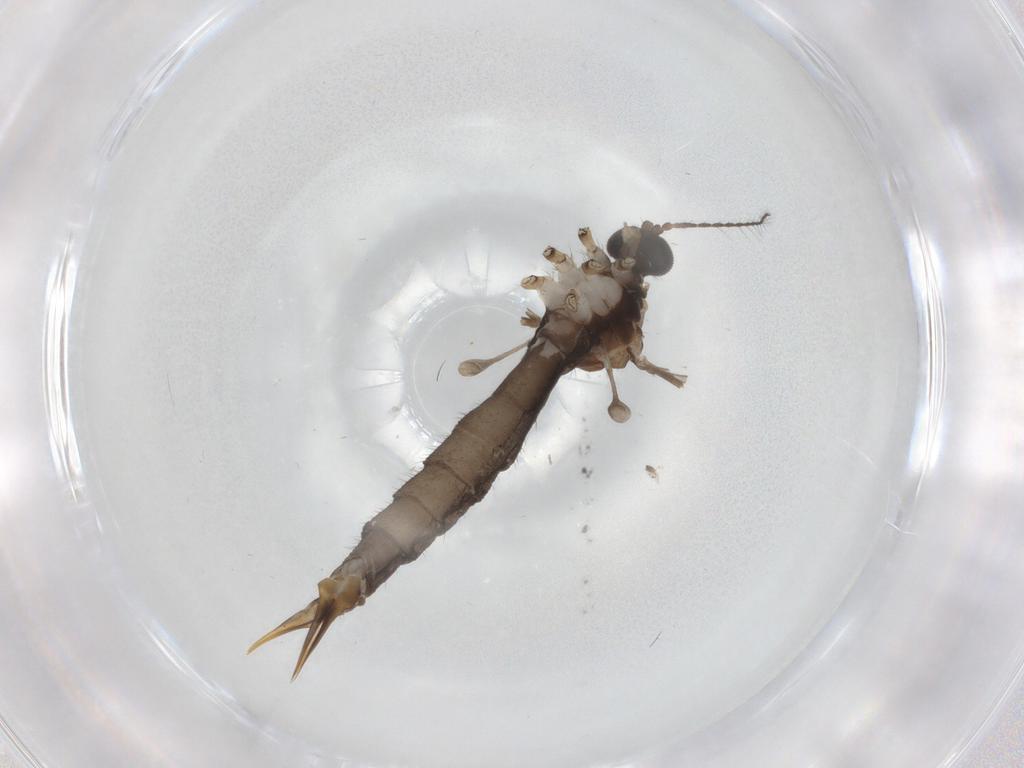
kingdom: Animalia
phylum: Arthropoda
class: Insecta
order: Diptera
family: Limoniidae
